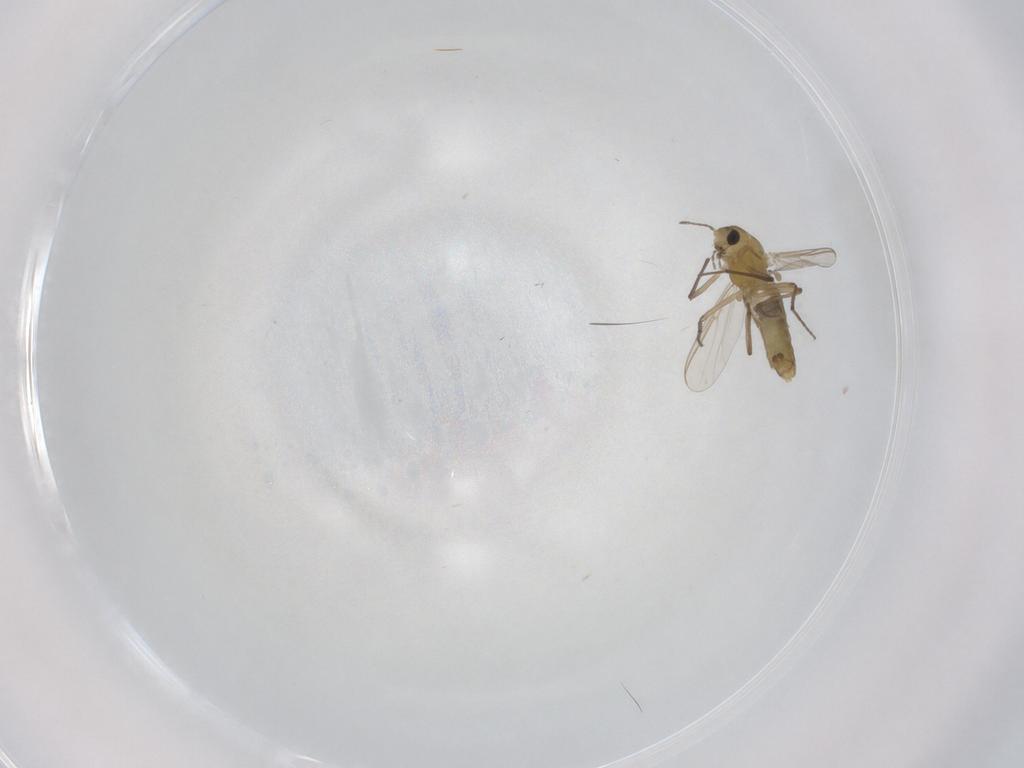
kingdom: Animalia
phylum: Arthropoda
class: Insecta
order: Diptera
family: Chironomidae
